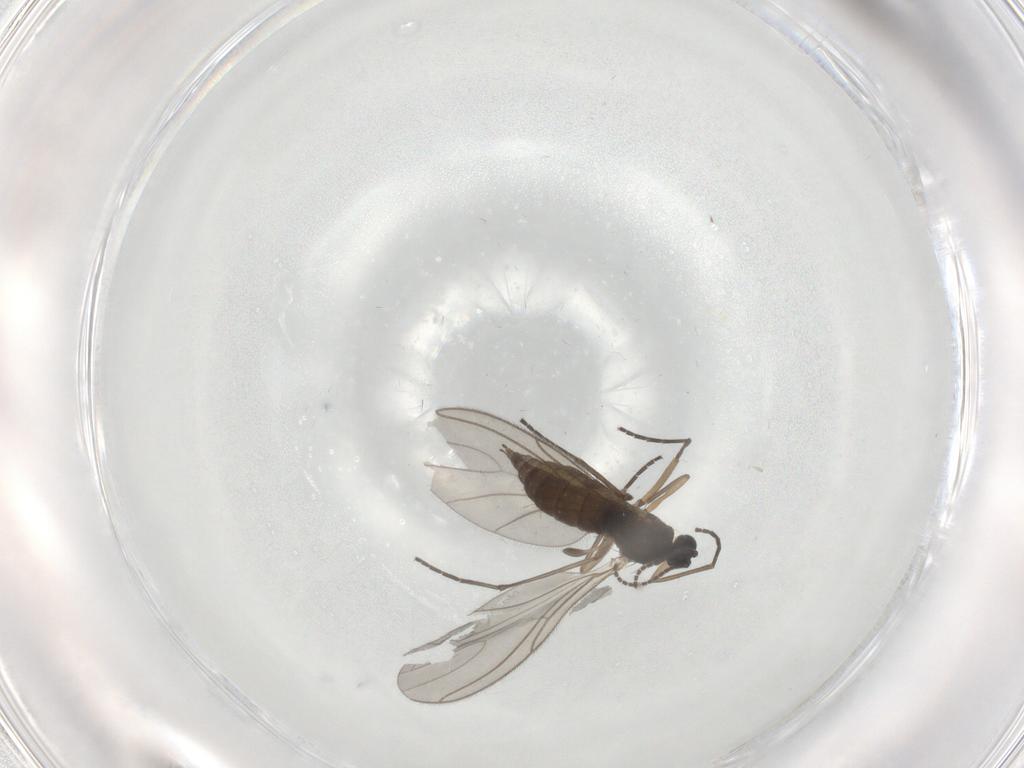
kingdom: Animalia
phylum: Arthropoda
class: Insecta
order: Diptera
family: Sciaridae
